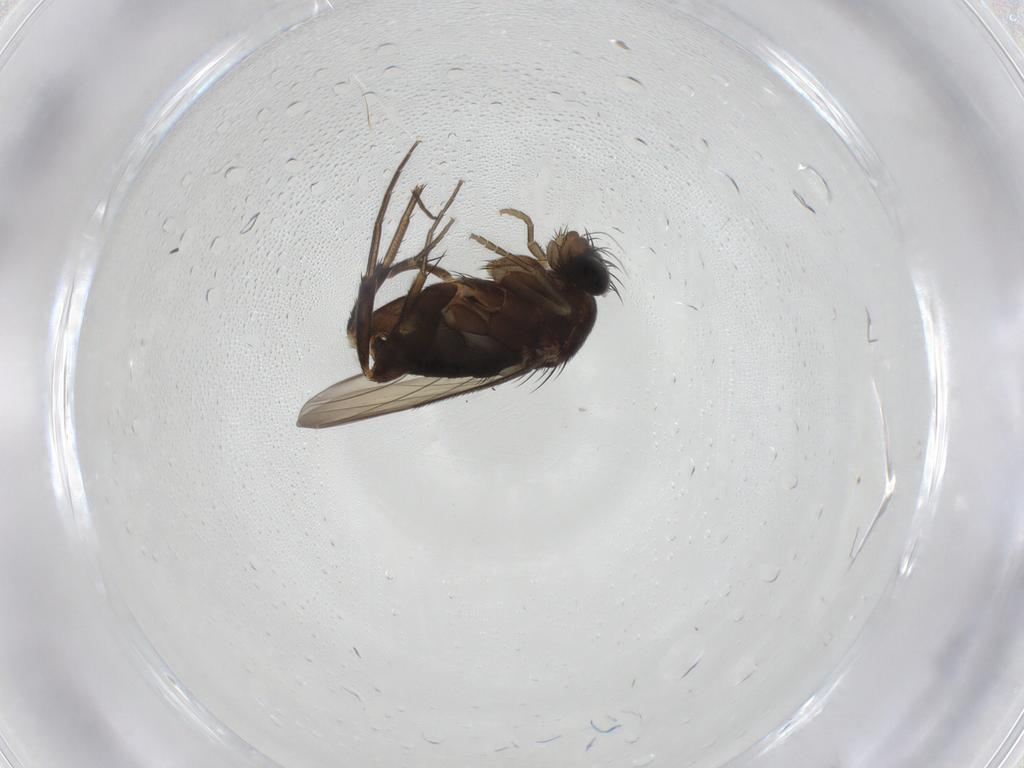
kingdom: Animalia
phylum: Arthropoda
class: Insecta
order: Diptera
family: Phoridae
